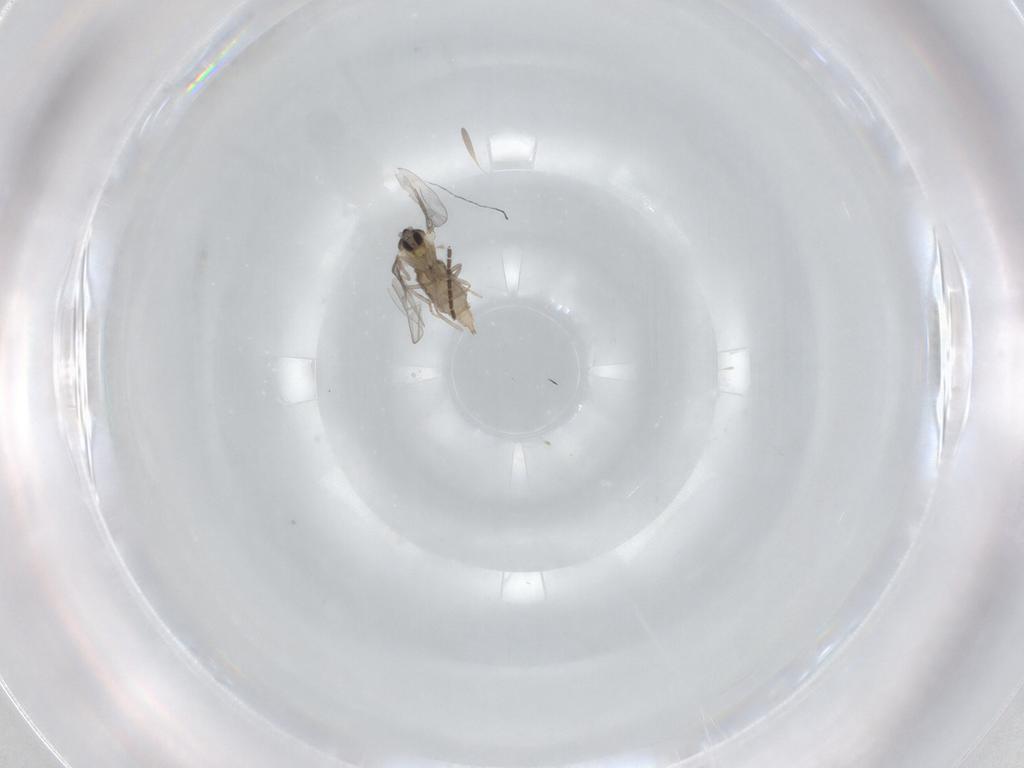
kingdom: Animalia
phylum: Arthropoda
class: Insecta
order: Diptera
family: Cecidomyiidae
